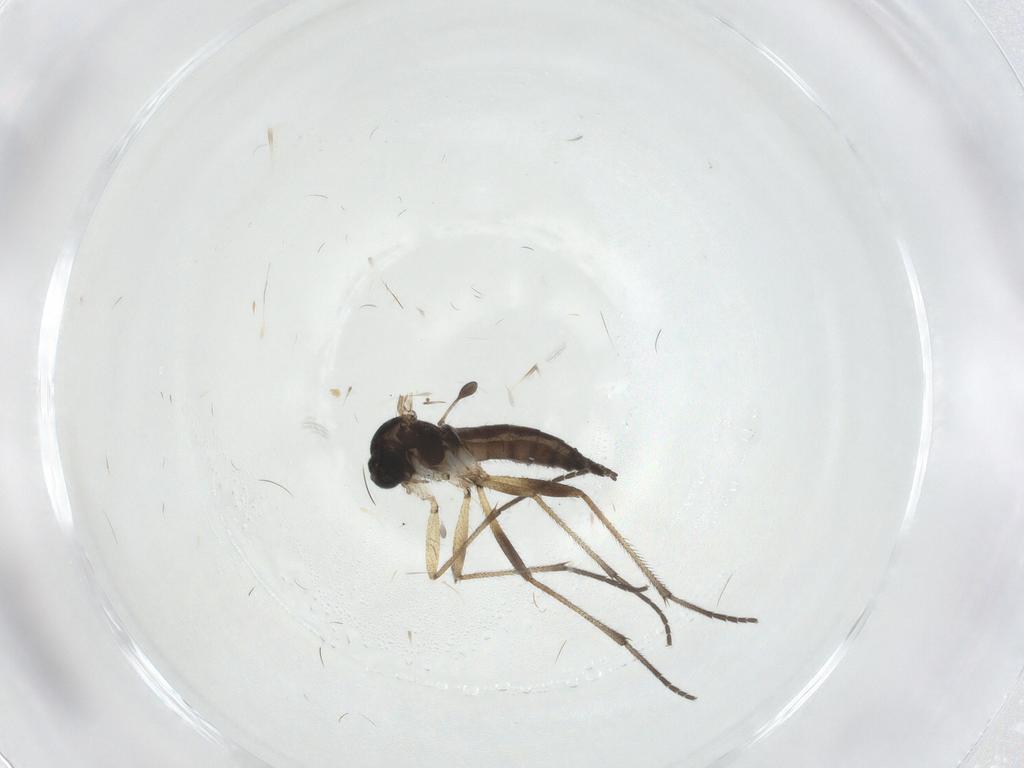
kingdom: Animalia
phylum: Arthropoda
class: Insecta
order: Diptera
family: Sciaridae
